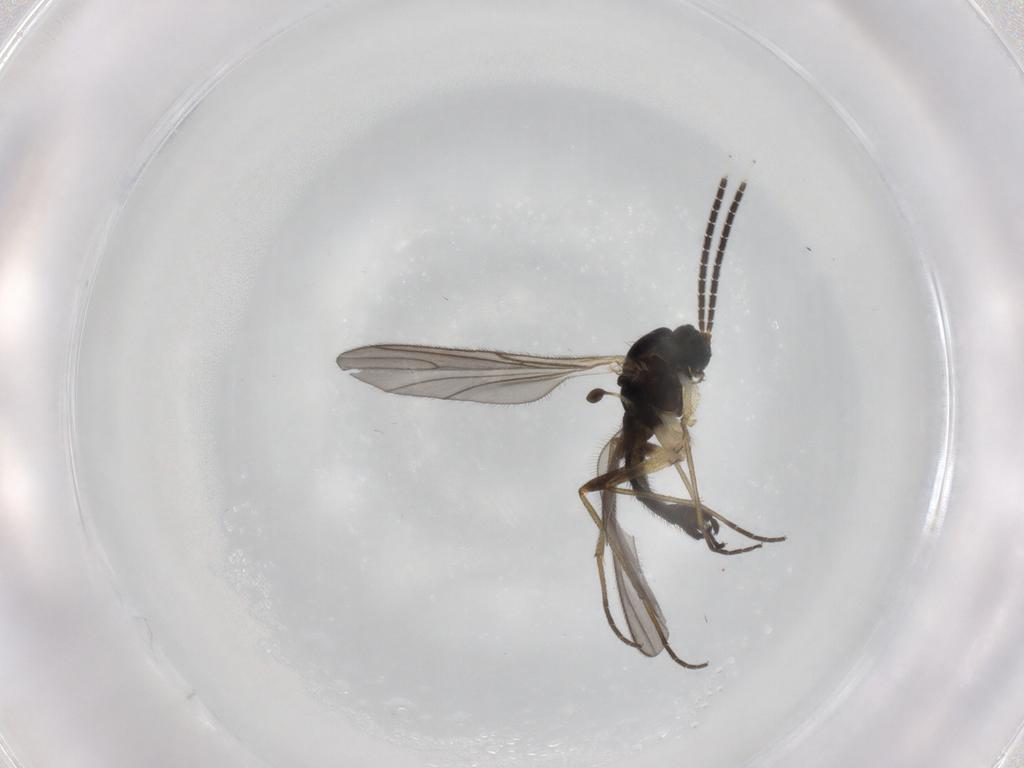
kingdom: Animalia
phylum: Arthropoda
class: Insecta
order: Diptera
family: Sciaridae
